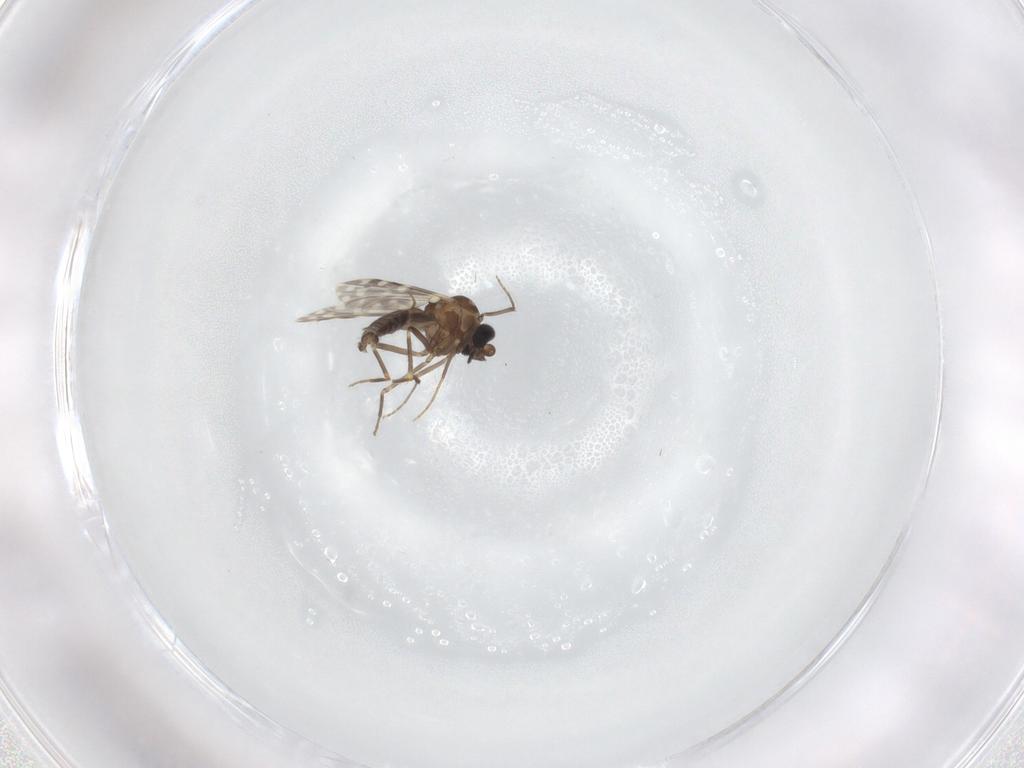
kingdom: Animalia
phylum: Arthropoda
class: Insecta
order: Diptera
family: Ceratopogonidae
